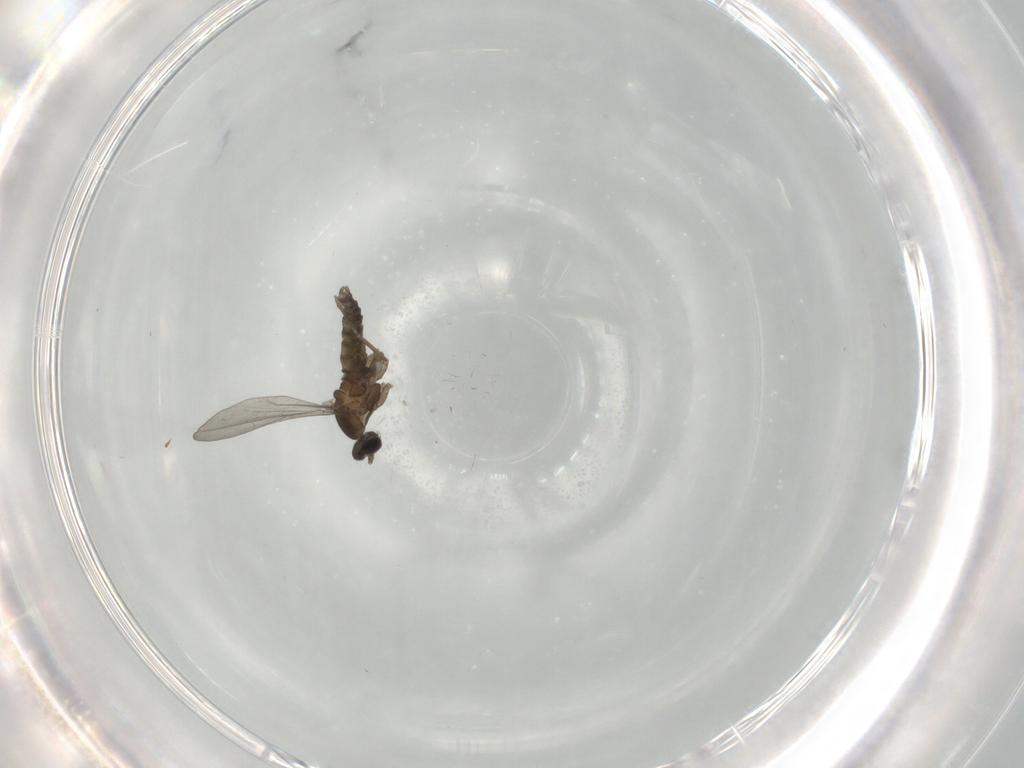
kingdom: Animalia
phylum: Arthropoda
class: Insecta
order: Diptera
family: Cecidomyiidae
